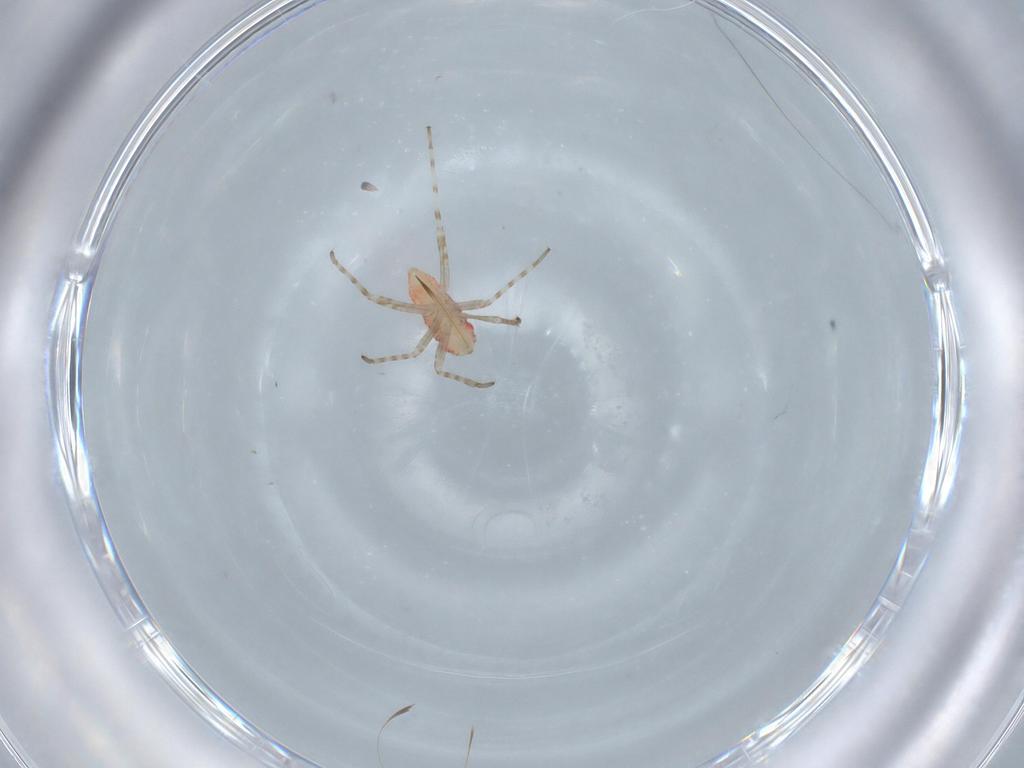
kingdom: Animalia
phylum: Arthropoda
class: Insecta
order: Hemiptera
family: Miridae
